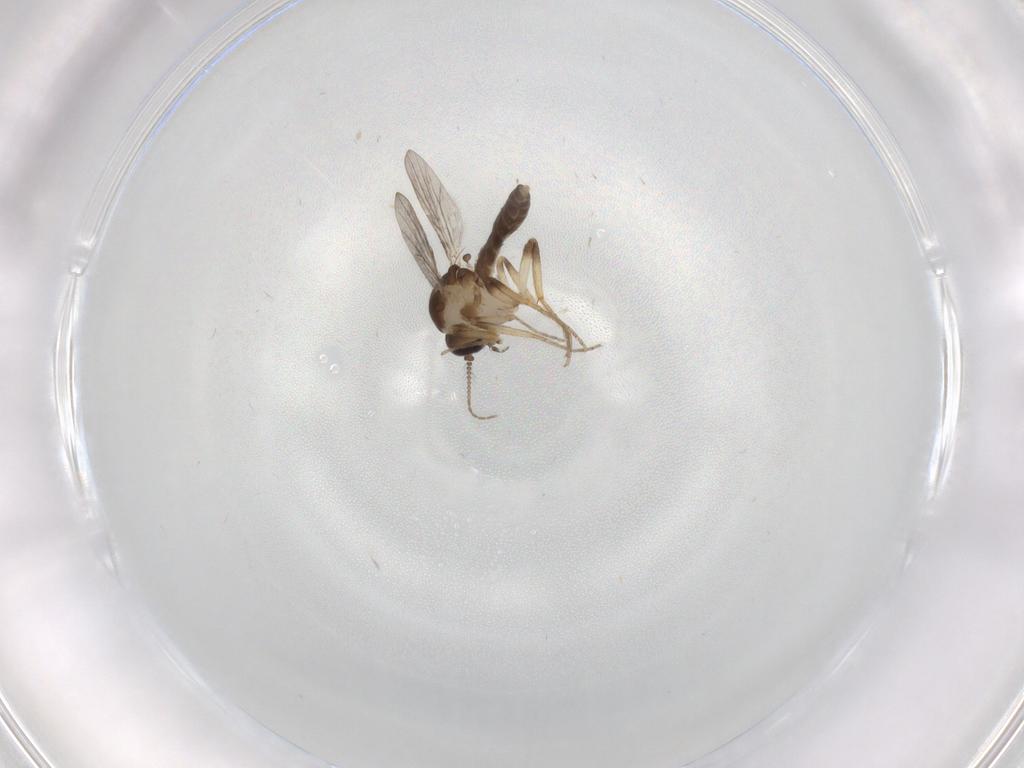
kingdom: Animalia
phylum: Arthropoda
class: Insecta
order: Diptera
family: Ceratopogonidae
